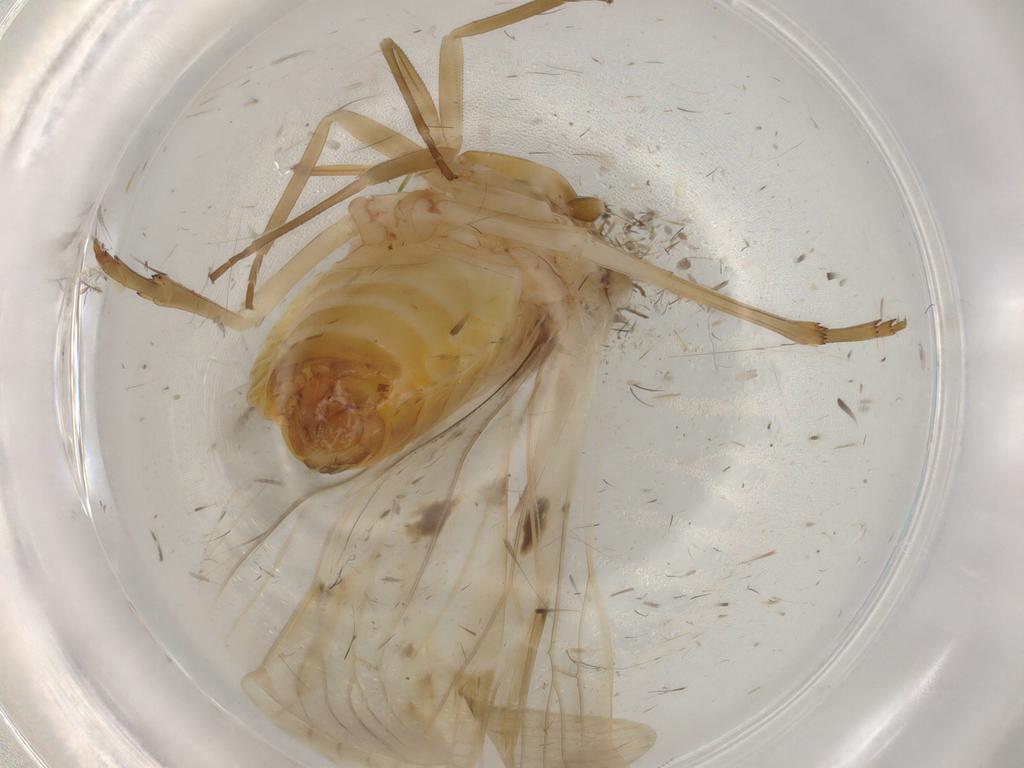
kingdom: Animalia
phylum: Arthropoda
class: Insecta
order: Hemiptera
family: Achilidae
